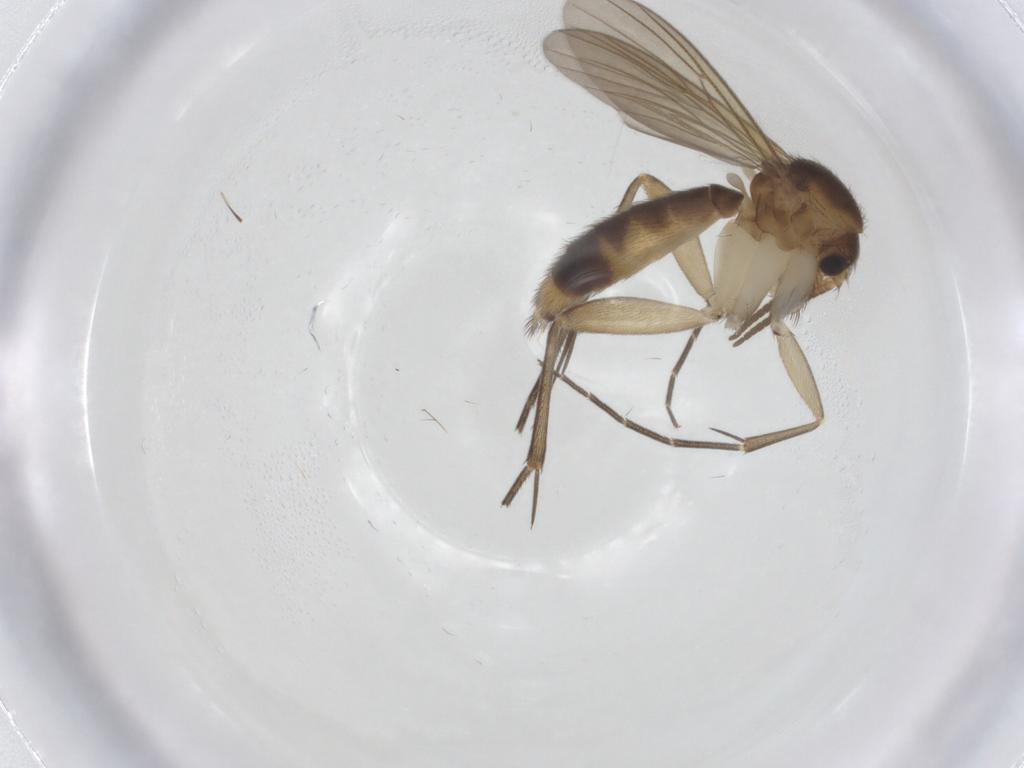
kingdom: Animalia
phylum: Arthropoda
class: Insecta
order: Diptera
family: Mycetophilidae
